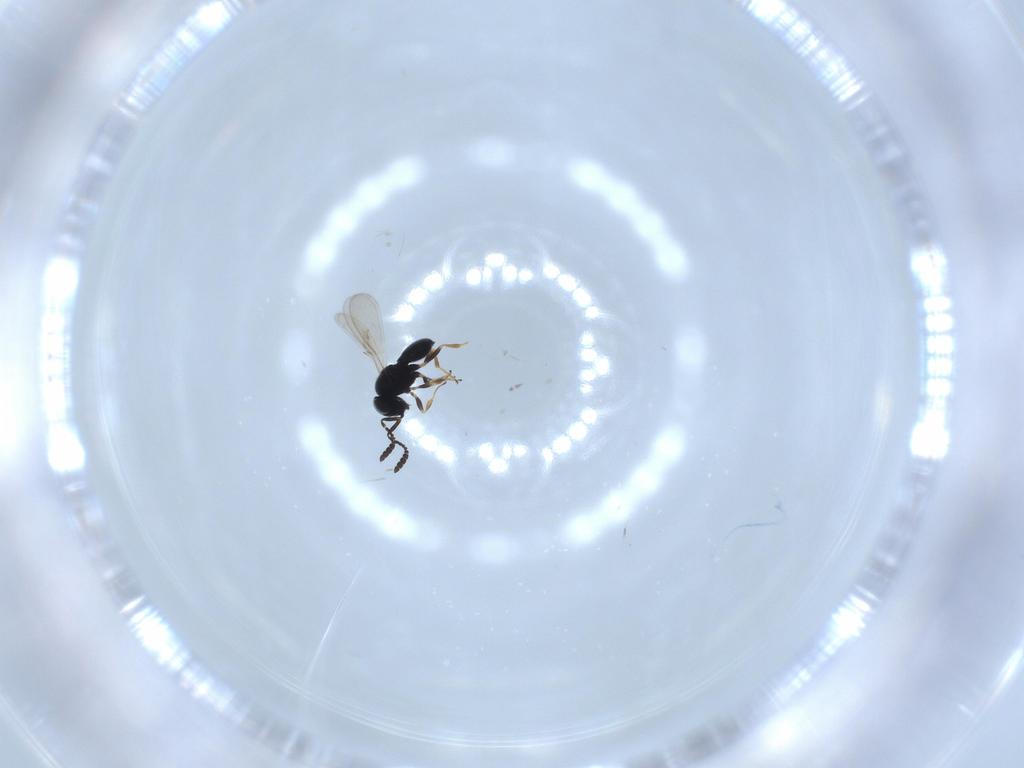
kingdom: Animalia
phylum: Arthropoda
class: Insecta
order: Hymenoptera
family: Scelionidae
